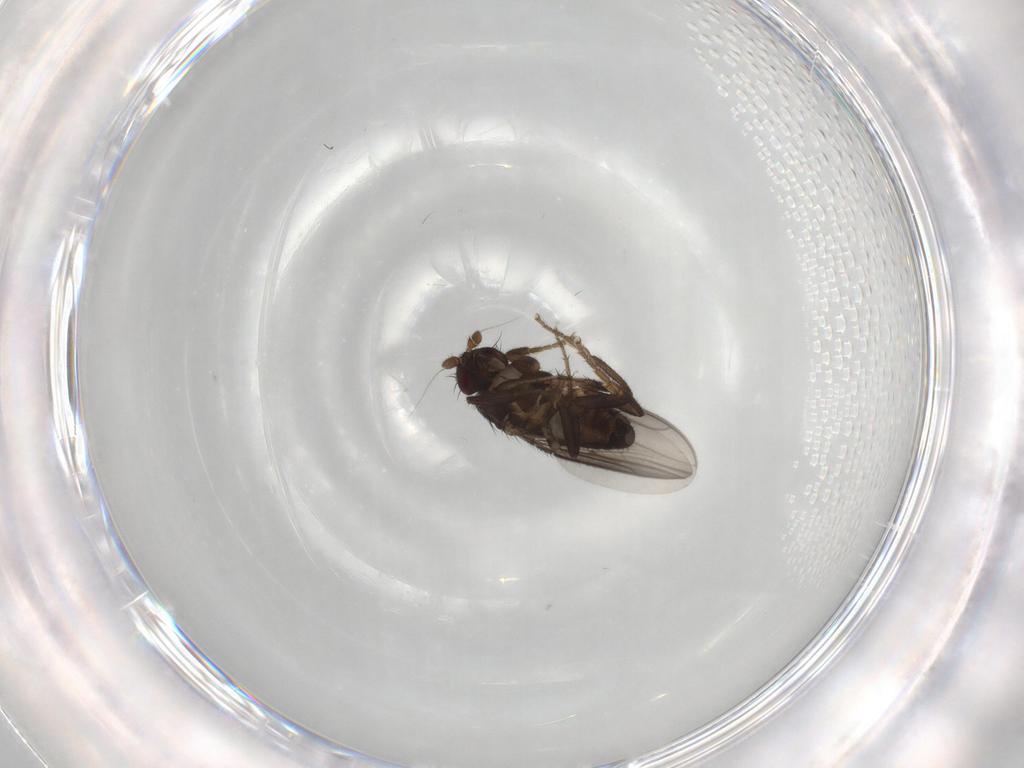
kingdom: Animalia
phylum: Arthropoda
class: Insecta
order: Diptera
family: Sphaeroceridae
